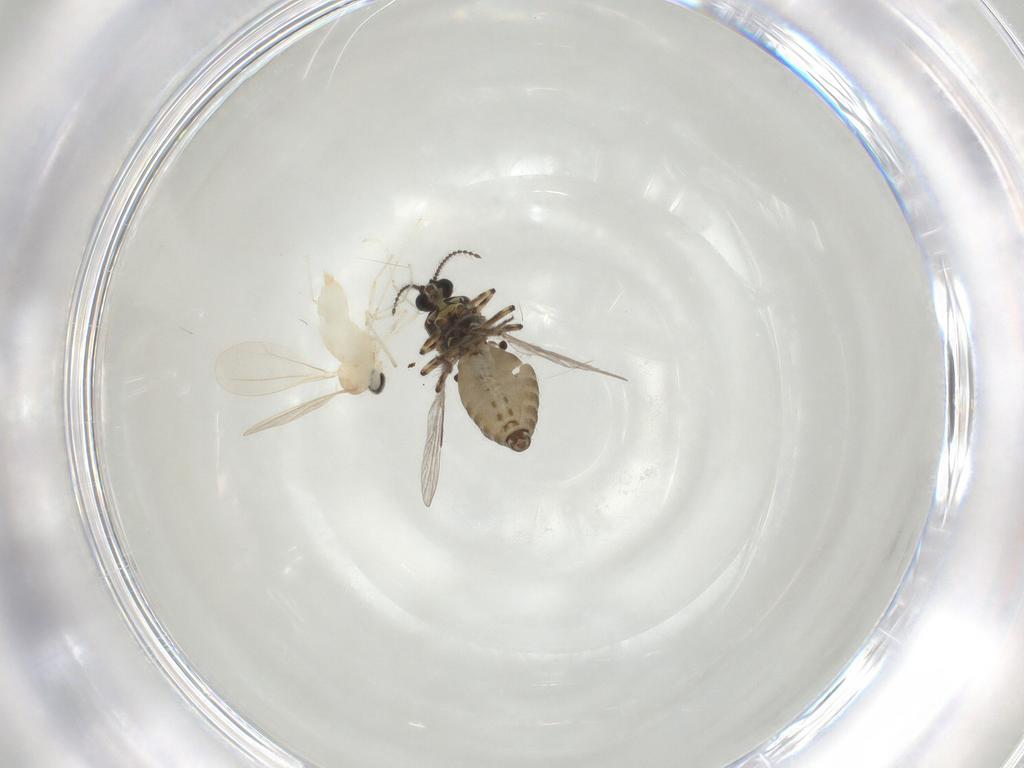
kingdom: Animalia
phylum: Arthropoda
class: Insecta
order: Diptera
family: Cecidomyiidae
